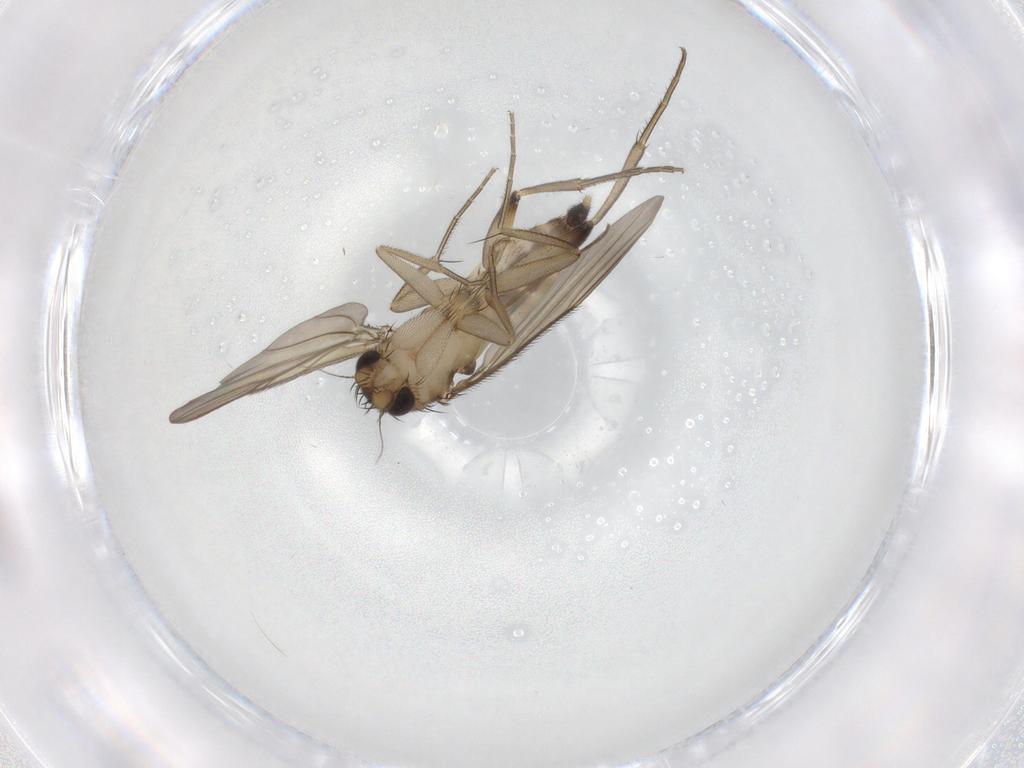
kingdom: Animalia
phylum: Arthropoda
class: Insecta
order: Diptera
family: Phoridae
